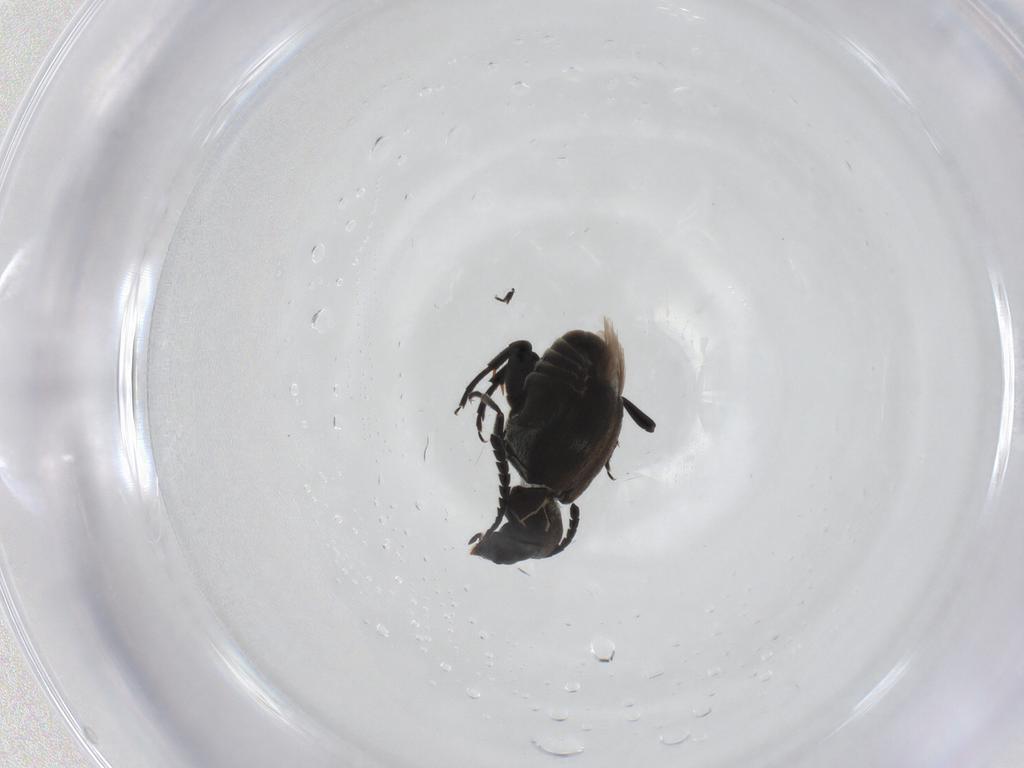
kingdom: Animalia
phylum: Arthropoda
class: Insecta
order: Coleoptera
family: Chrysomelidae
